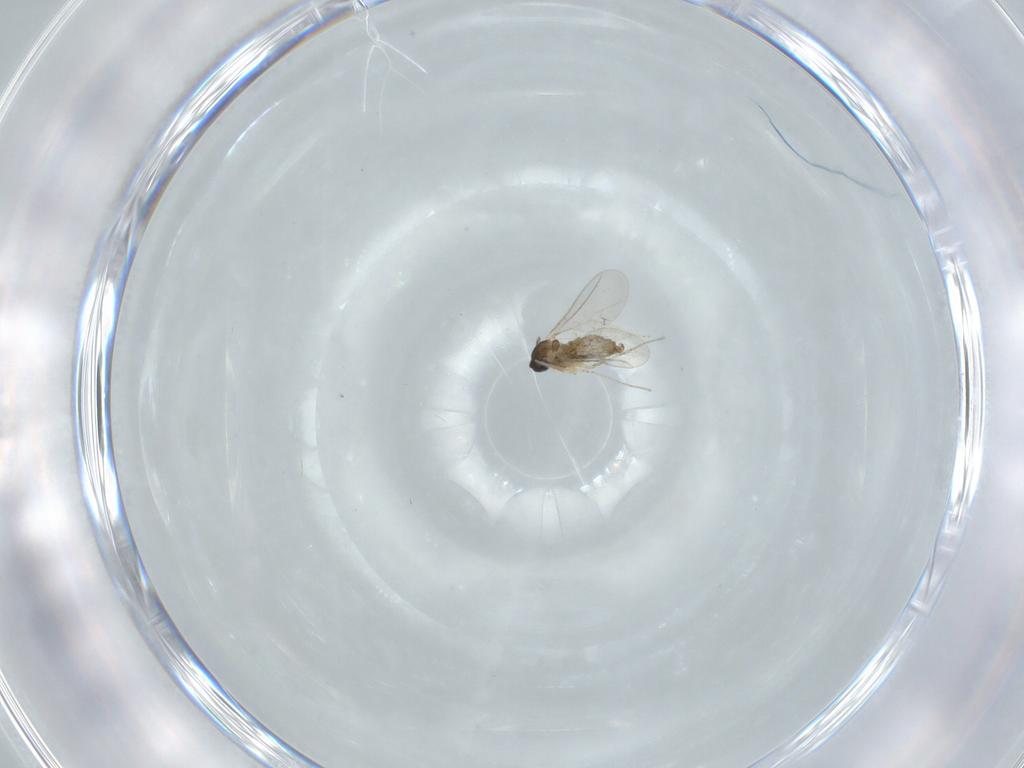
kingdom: Animalia
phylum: Arthropoda
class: Insecta
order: Diptera
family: Cecidomyiidae
